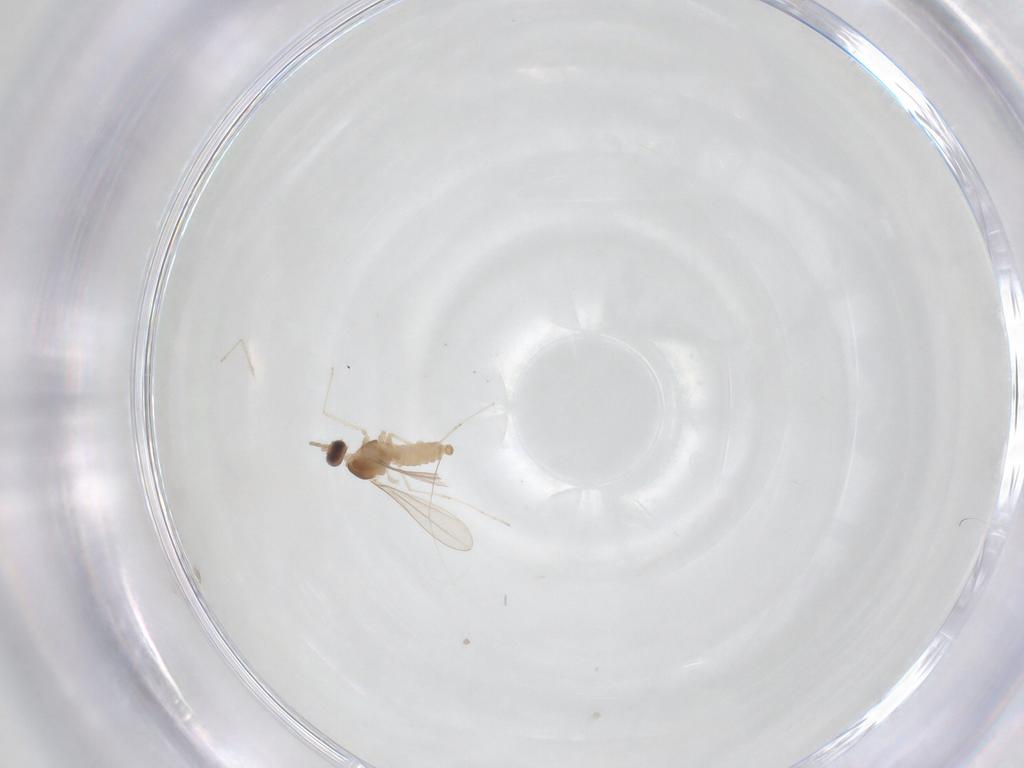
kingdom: Animalia
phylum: Arthropoda
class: Insecta
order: Diptera
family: Cecidomyiidae
